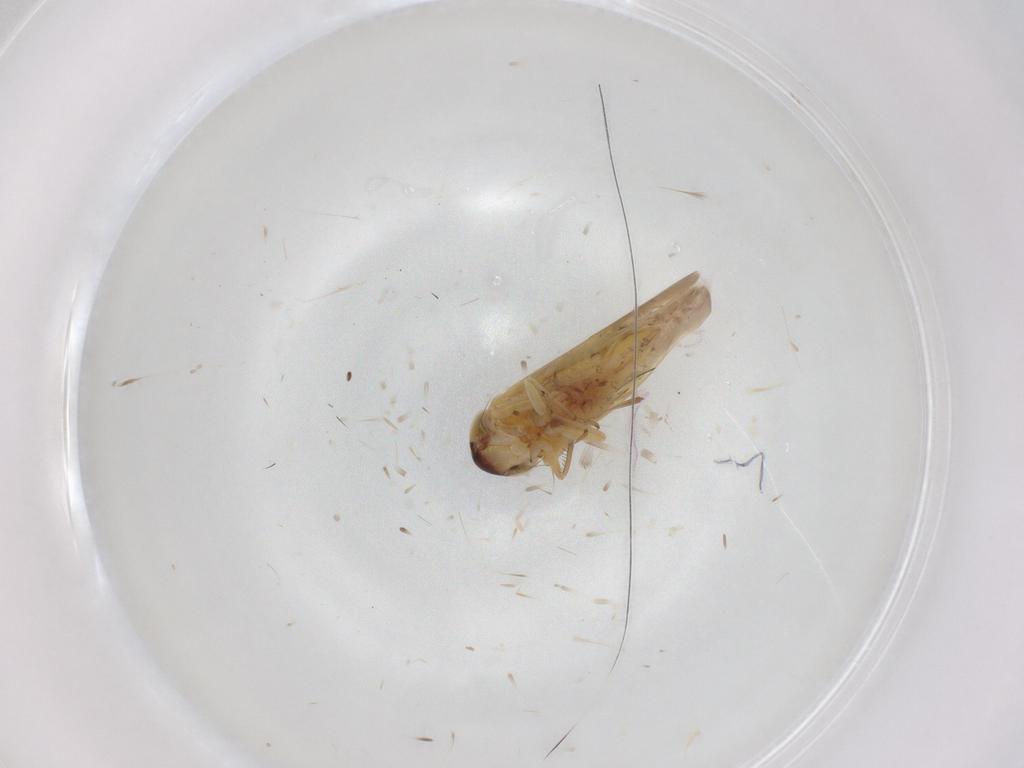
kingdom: Animalia
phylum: Arthropoda
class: Insecta
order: Hemiptera
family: Cicadellidae
